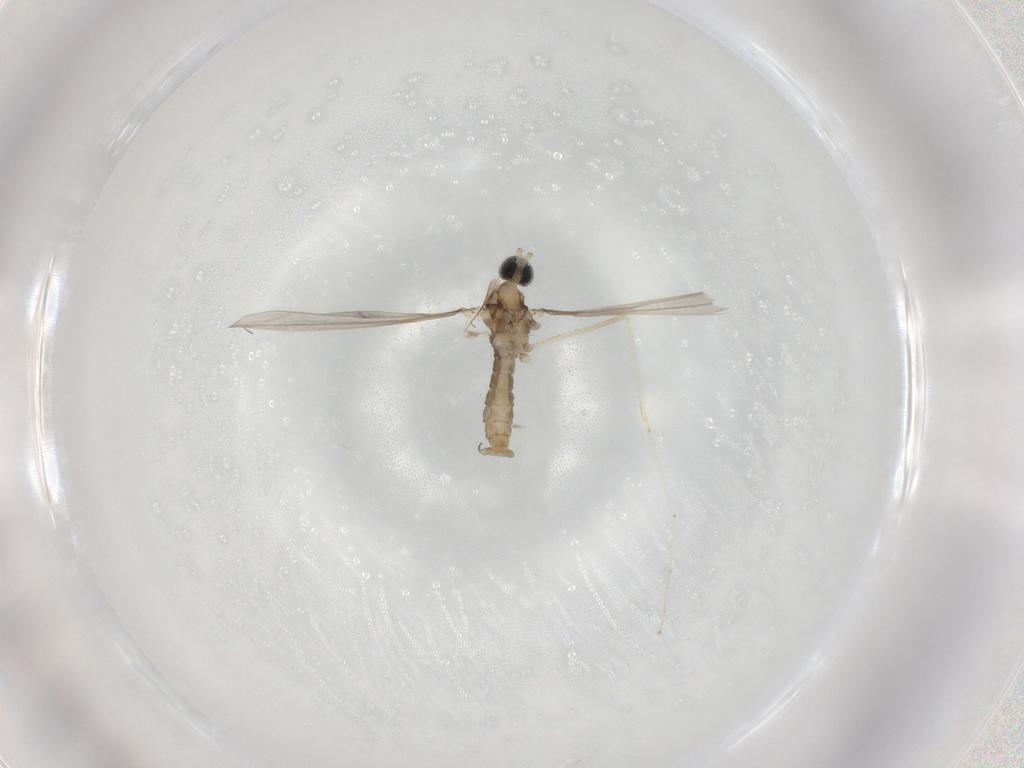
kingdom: Animalia
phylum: Arthropoda
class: Insecta
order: Diptera
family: Cecidomyiidae
